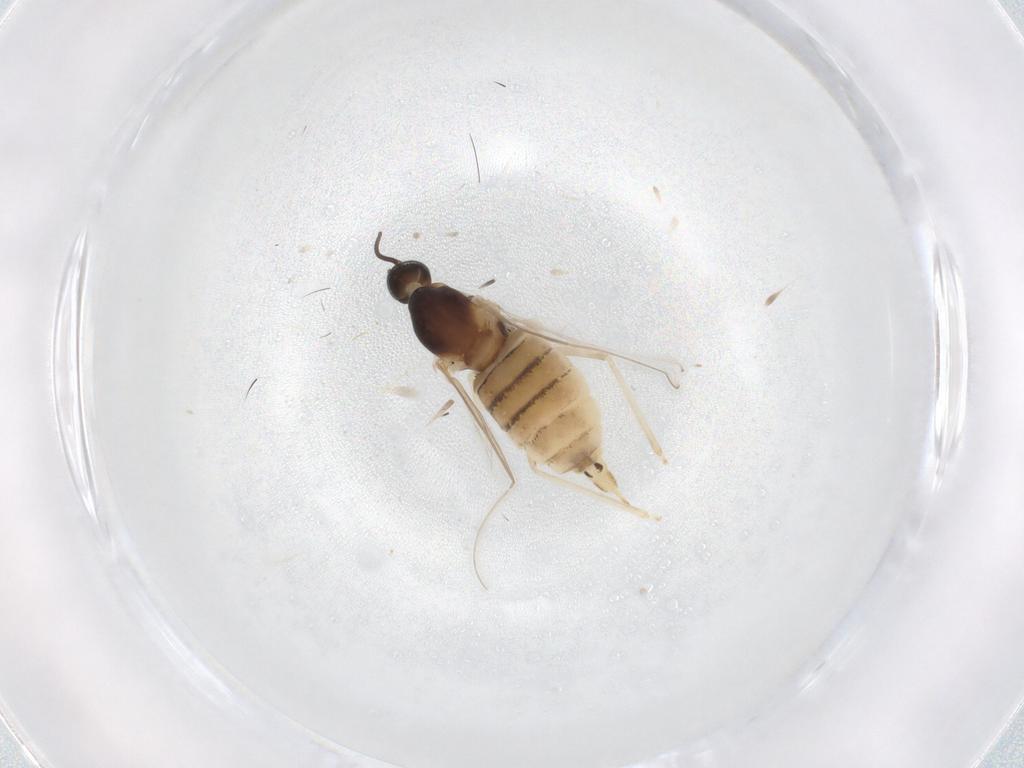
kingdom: Animalia
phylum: Arthropoda
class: Insecta
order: Diptera
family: Cecidomyiidae
